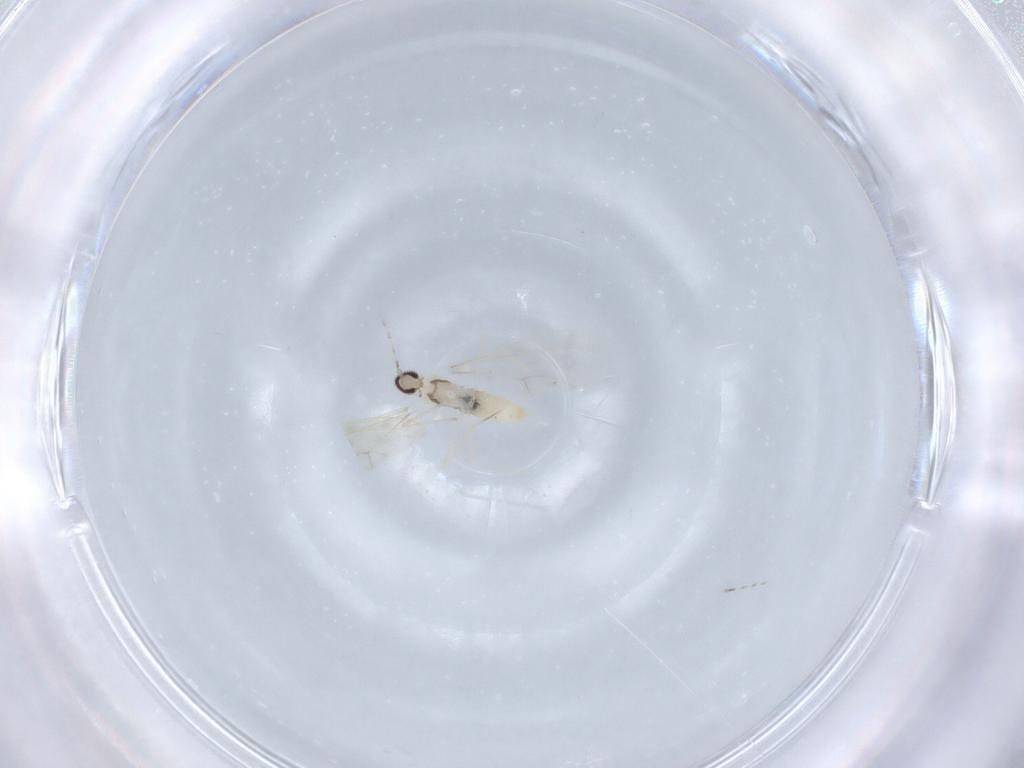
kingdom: Animalia
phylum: Arthropoda
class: Insecta
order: Diptera
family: Cecidomyiidae
